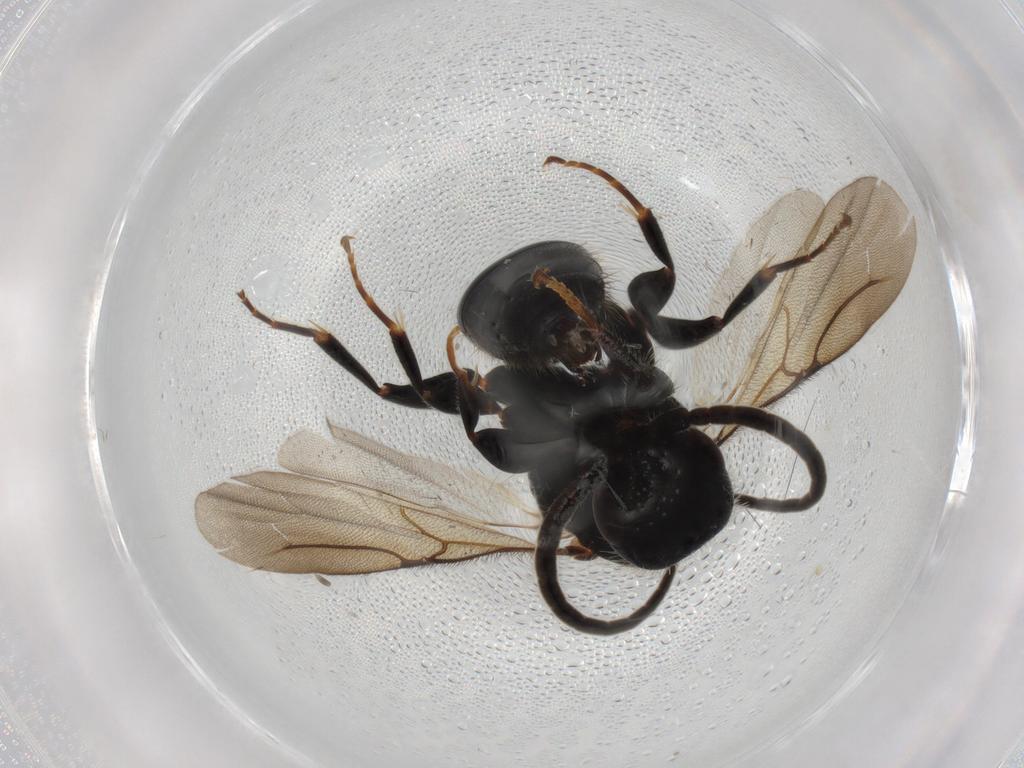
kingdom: Animalia
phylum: Arthropoda
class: Insecta
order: Hymenoptera
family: Bethylidae
